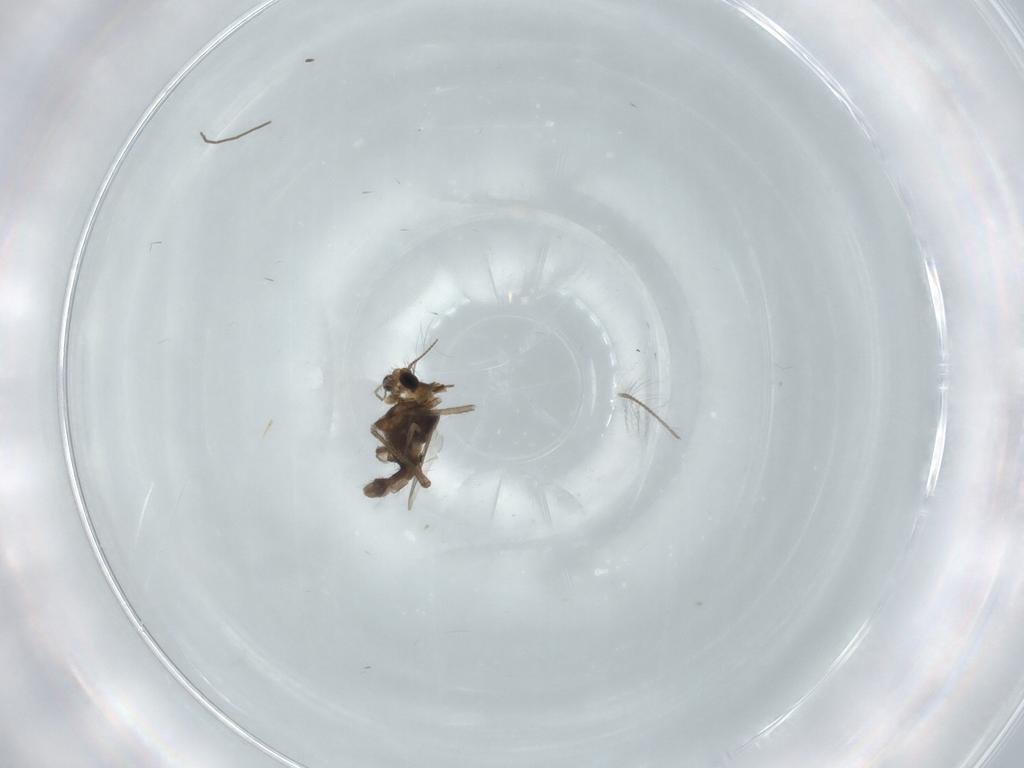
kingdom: Animalia
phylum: Arthropoda
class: Insecta
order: Diptera
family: Chironomidae
